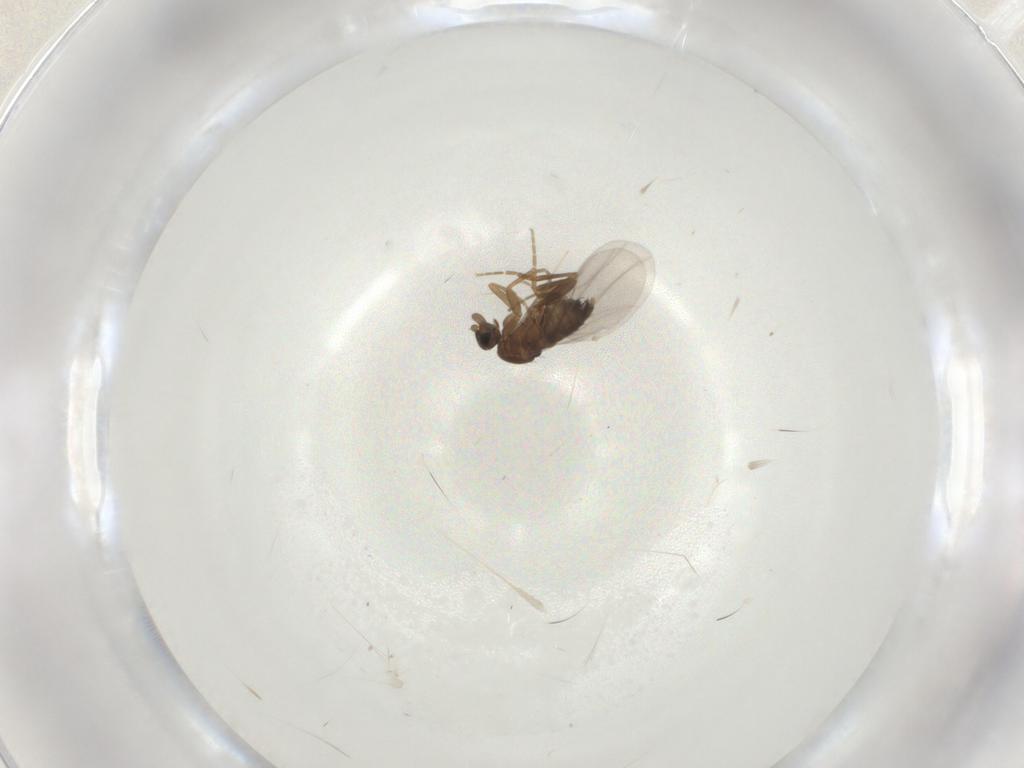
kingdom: Animalia
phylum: Arthropoda
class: Insecta
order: Diptera
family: Phoridae
